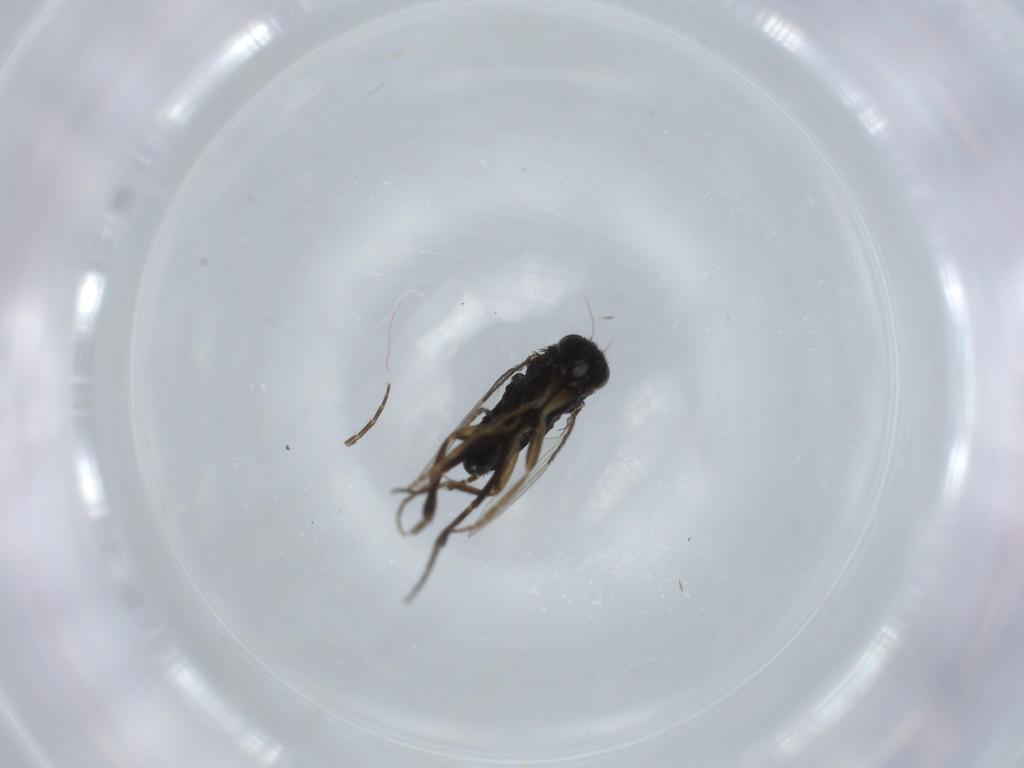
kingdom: Animalia
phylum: Arthropoda
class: Insecta
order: Diptera
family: Phoridae
